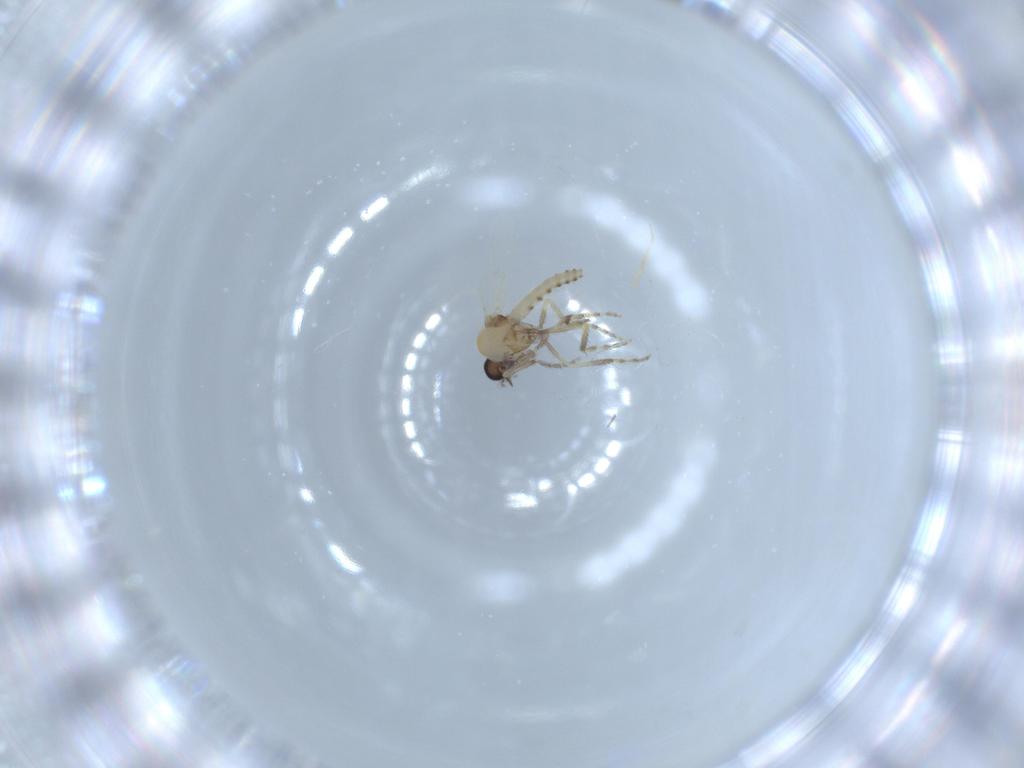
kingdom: Animalia
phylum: Arthropoda
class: Insecta
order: Diptera
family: Ceratopogonidae
